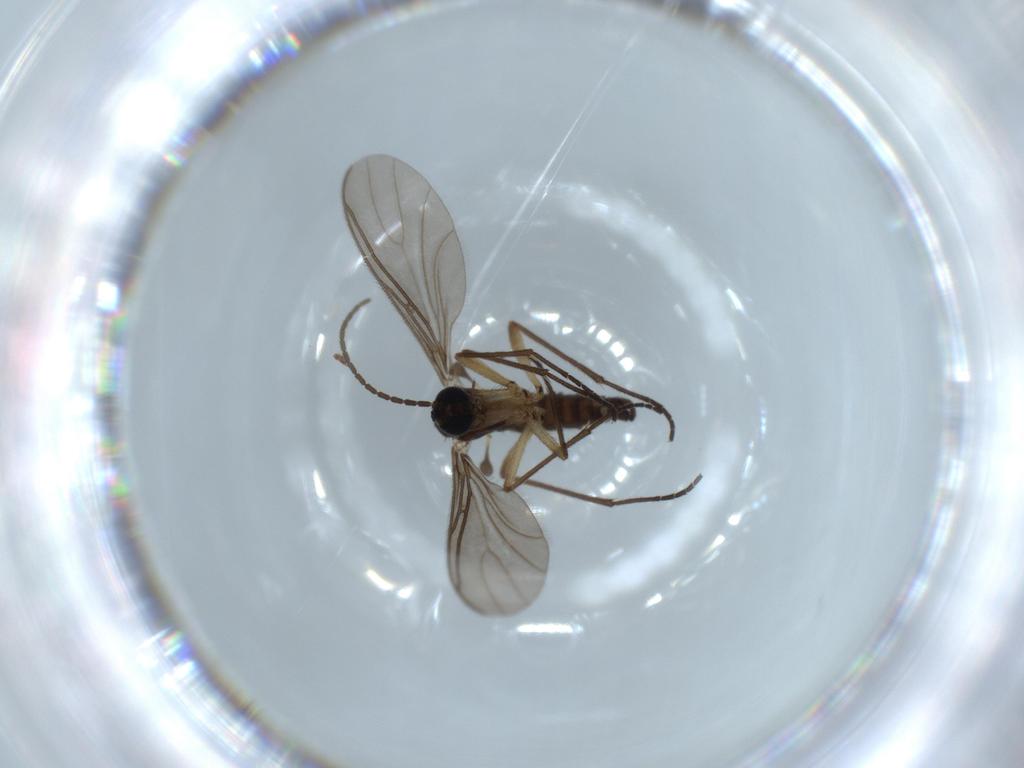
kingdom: Animalia
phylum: Arthropoda
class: Insecta
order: Diptera
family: Sciaridae
